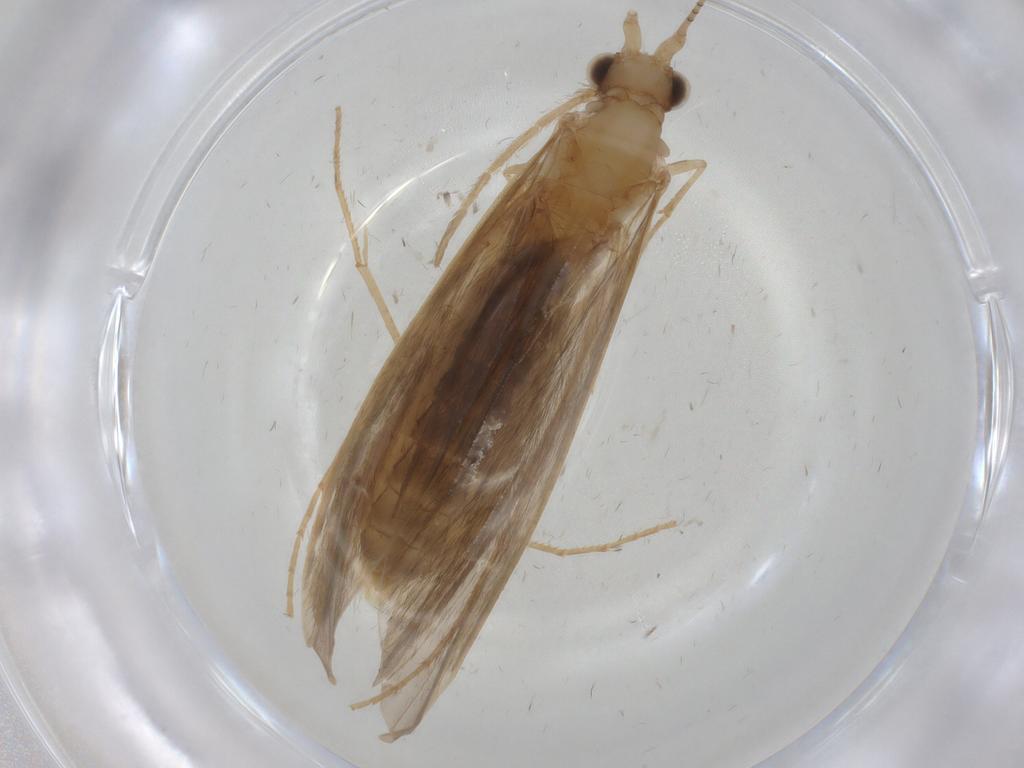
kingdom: Animalia
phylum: Arthropoda
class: Insecta
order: Trichoptera
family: Leptoceridae
